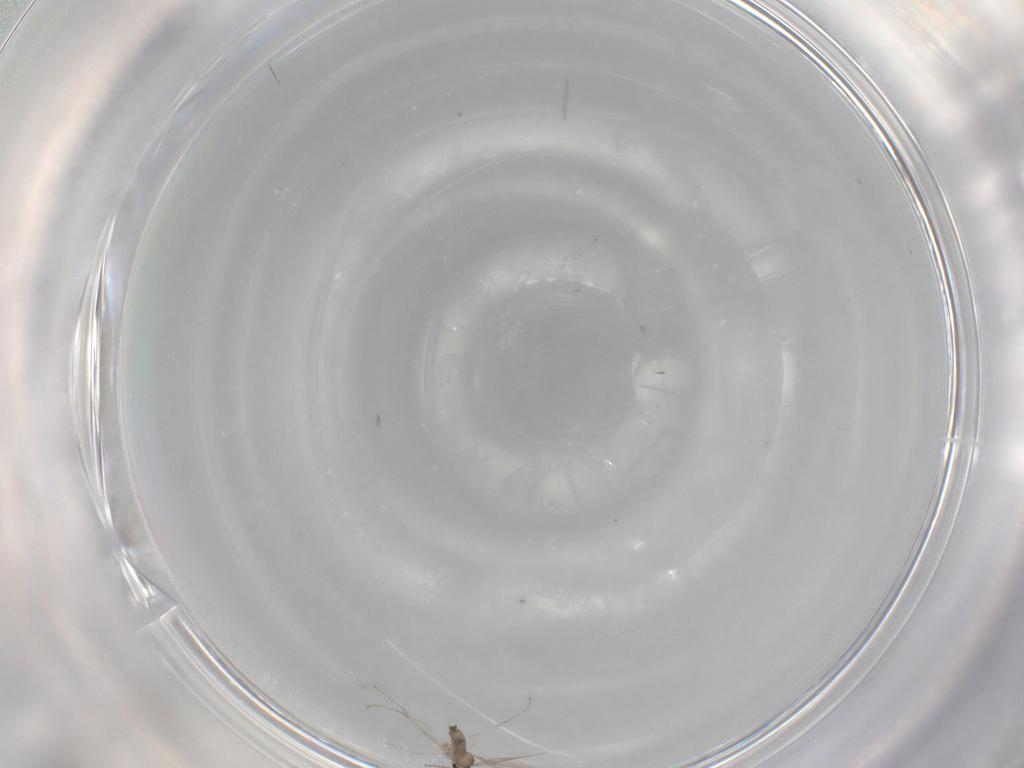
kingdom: Animalia
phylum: Arthropoda
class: Insecta
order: Diptera
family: Cecidomyiidae
